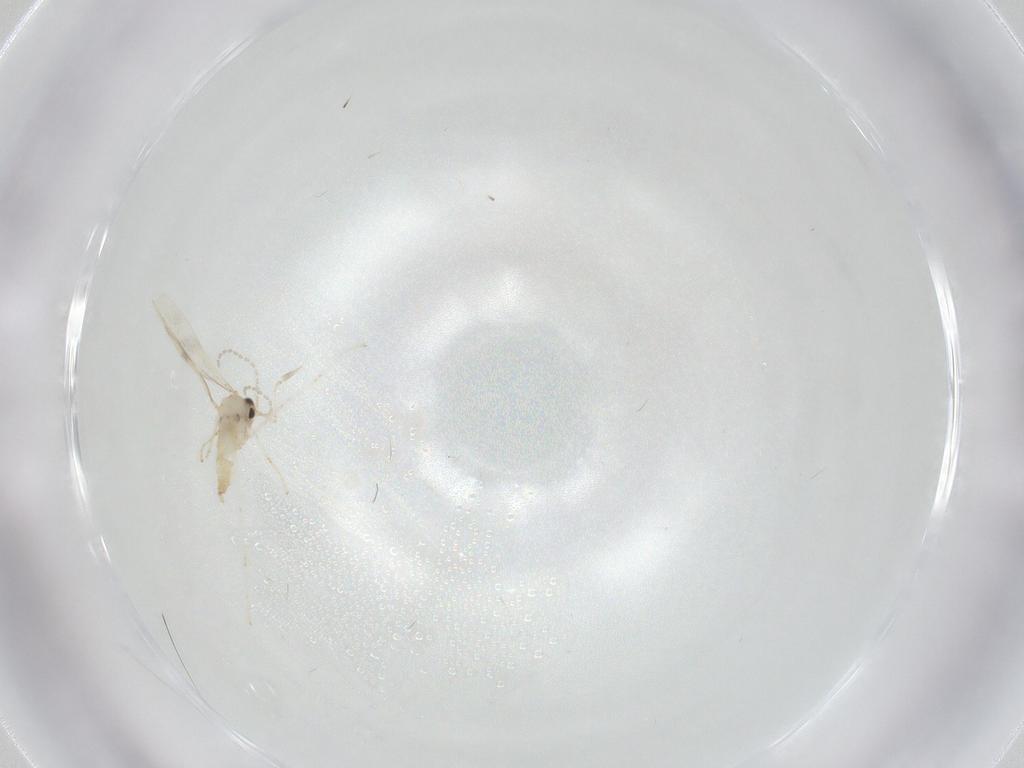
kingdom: Animalia
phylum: Arthropoda
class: Insecta
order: Diptera
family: Cecidomyiidae
